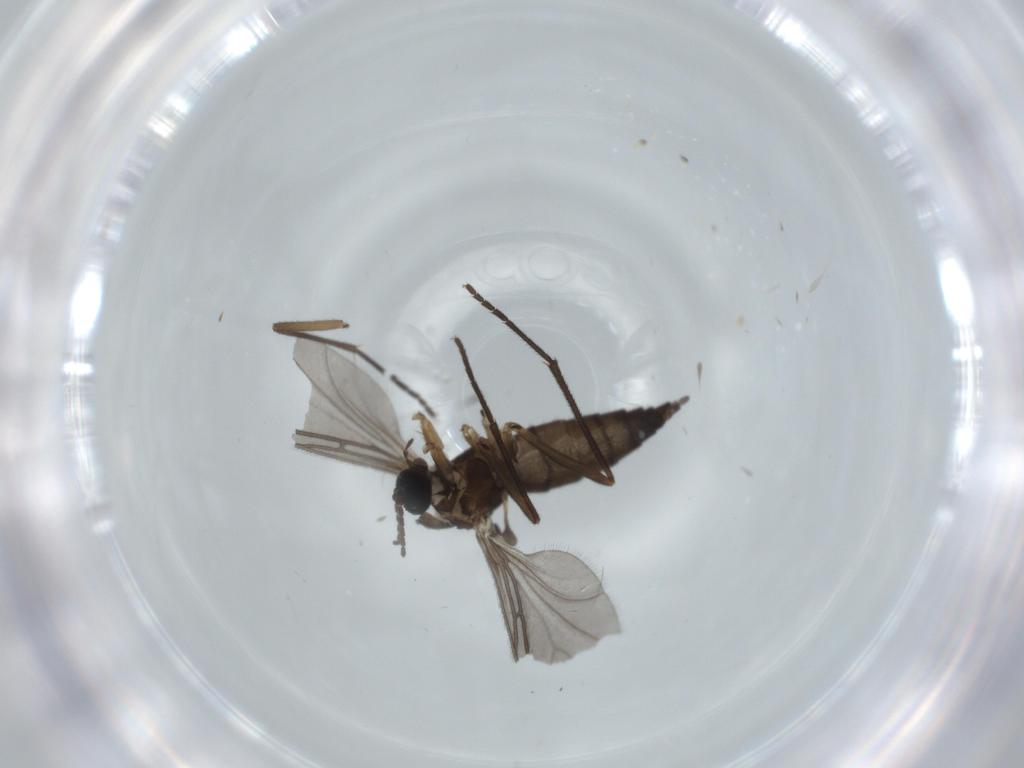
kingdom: Animalia
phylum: Arthropoda
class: Insecta
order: Diptera
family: Sciaridae
